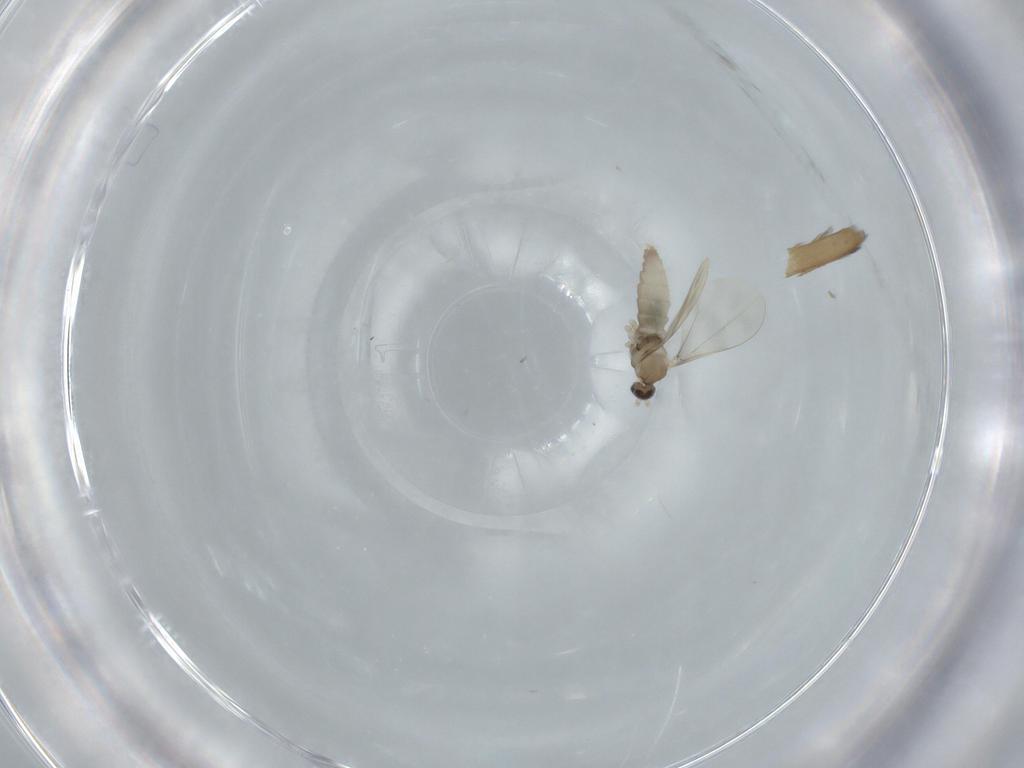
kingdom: Animalia
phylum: Arthropoda
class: Insecta
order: Diptera
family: Cecidomyiidae
